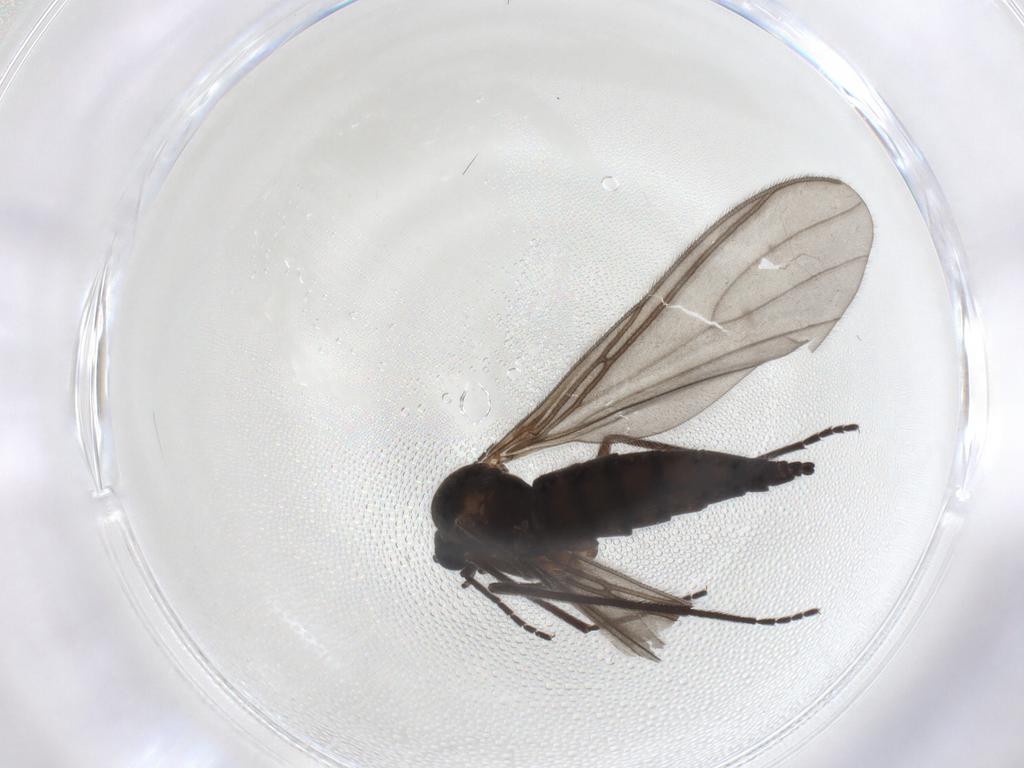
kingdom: Animalia
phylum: Arthropoda
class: Insecta
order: Diptera
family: Sciaridae
